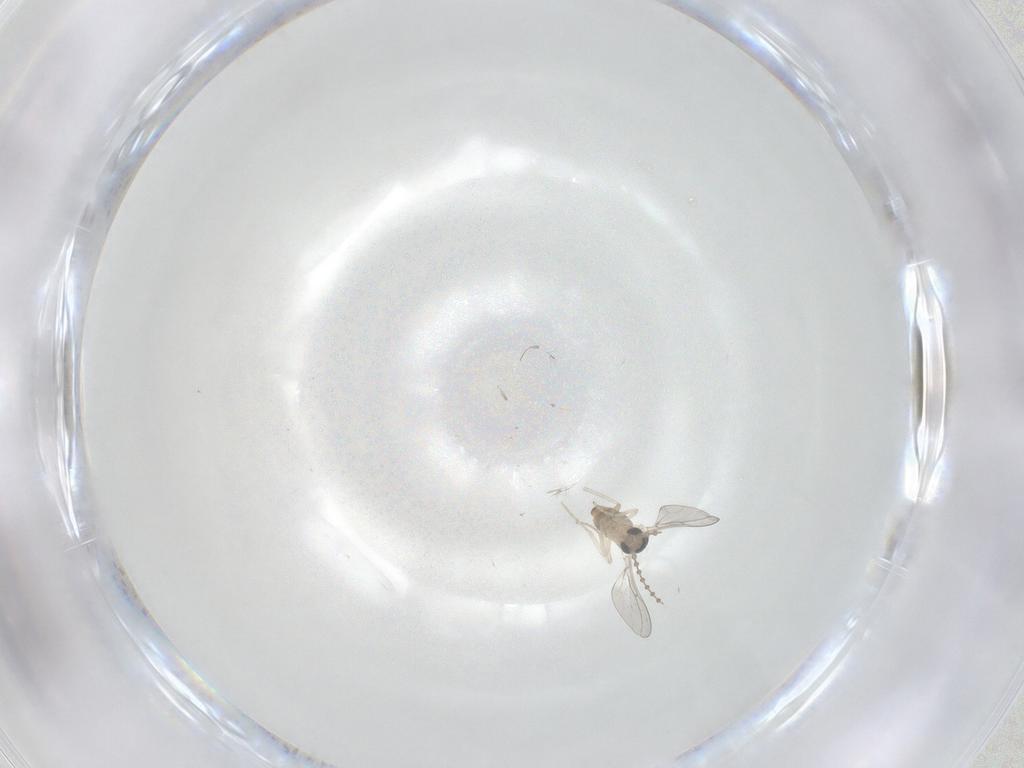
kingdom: Animalia
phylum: Arthropoda
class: Insecta
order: Diptera
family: Cecidomyiidae
